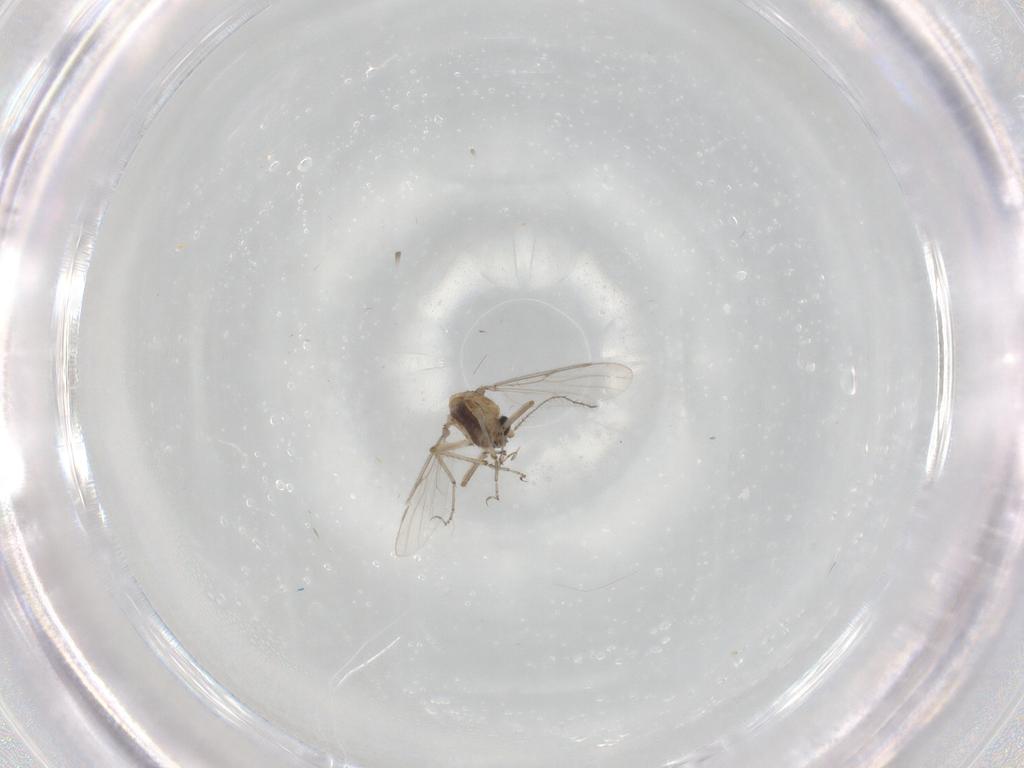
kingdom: Animalia
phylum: Arthropoda
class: Insecta
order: Diptera
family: Ceratopogonidae
